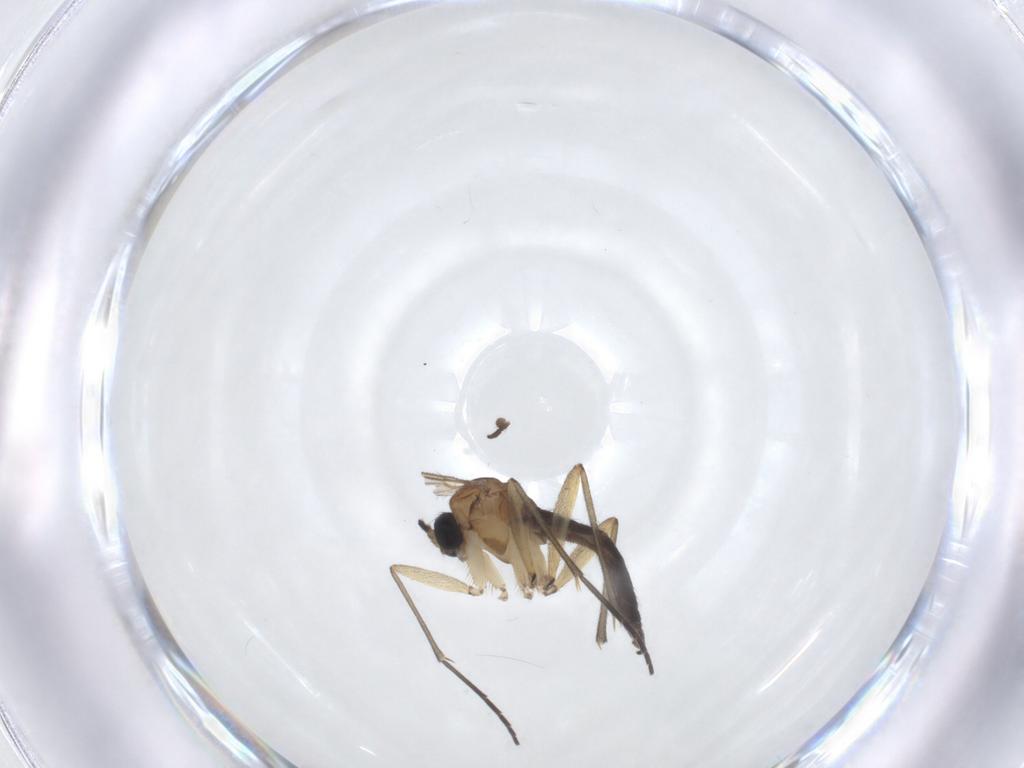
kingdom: Animalia
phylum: Arthropoda
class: Insecta
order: Diptera
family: Sciaridae
